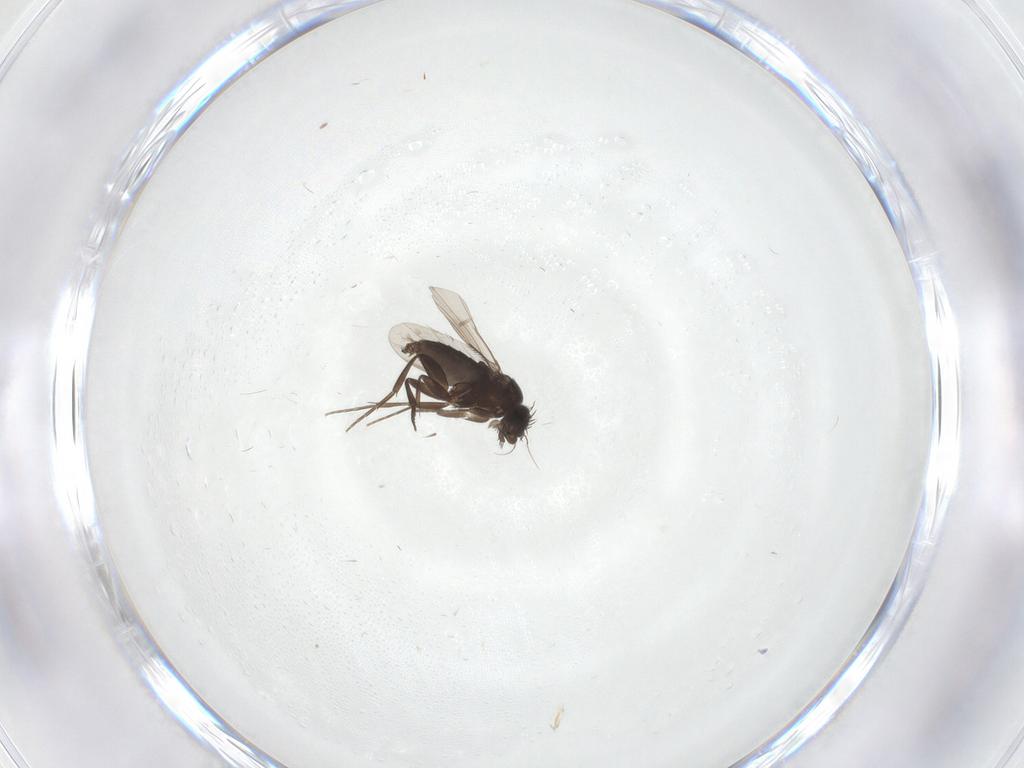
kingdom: Animalia
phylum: Arthropoda
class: Insecta
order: Diptera
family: Phoridae
